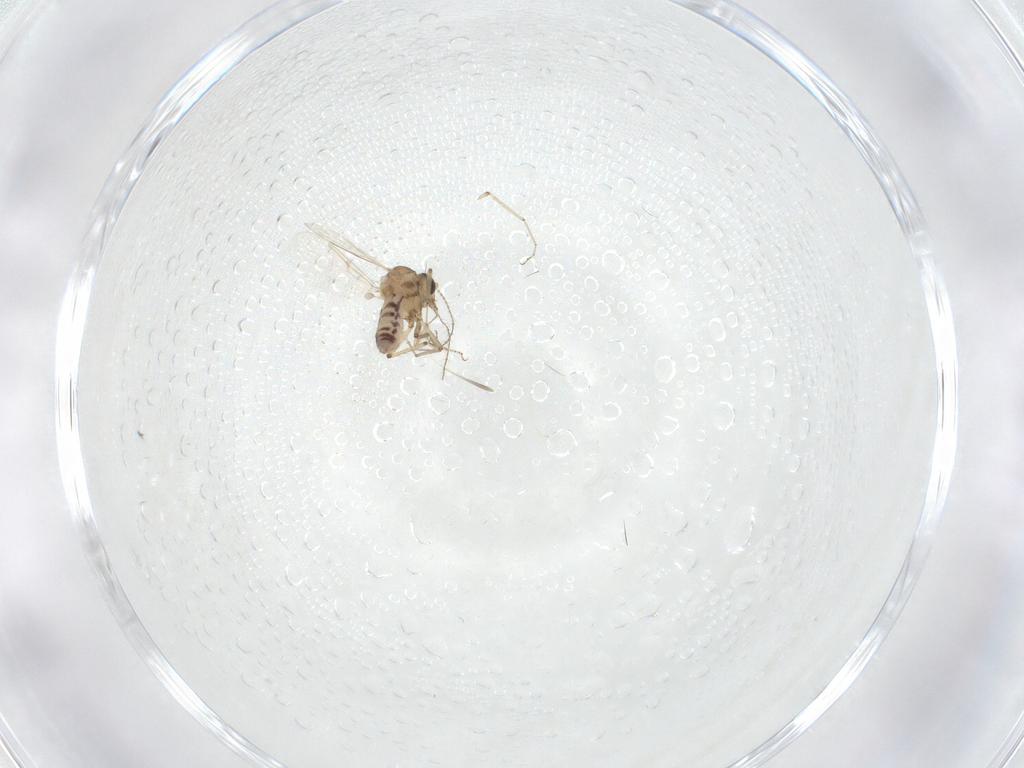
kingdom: Animalia
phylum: Arthropoda
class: Insecta
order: Diptera
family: Ceratopogonidae
